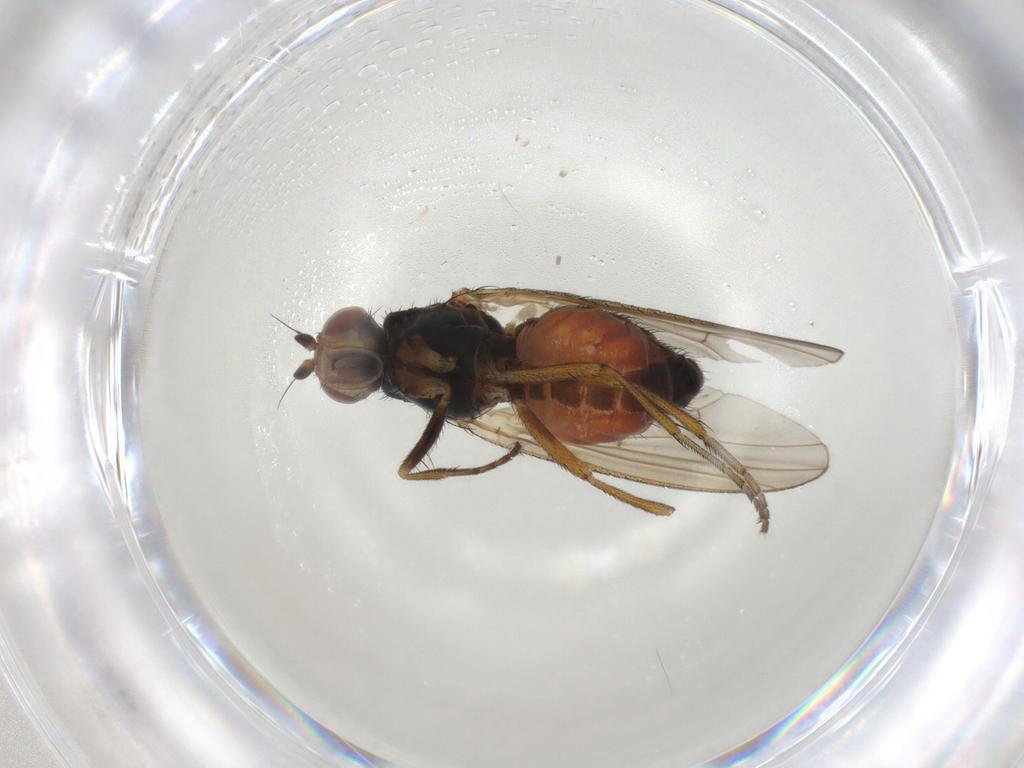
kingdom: Animalia
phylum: Arthropoda
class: Insecta
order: Diptera
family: Heleomyzidae
